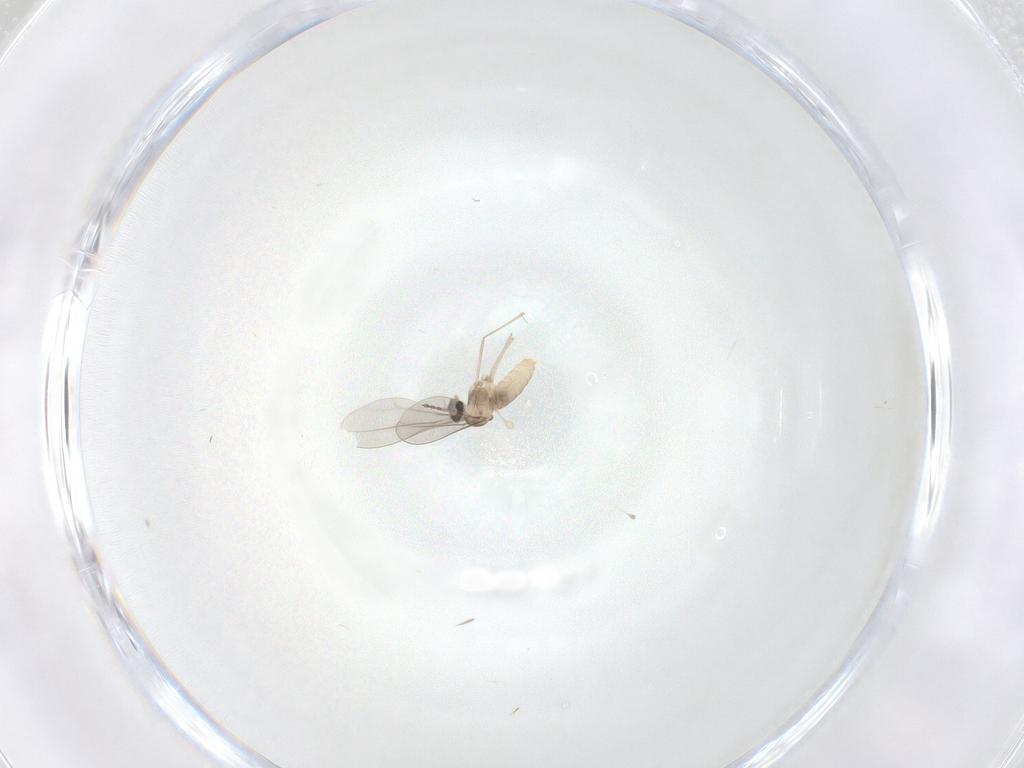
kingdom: Animalia
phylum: Arthropoda
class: Insecta
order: Diptera
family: Cecidomyiidae
